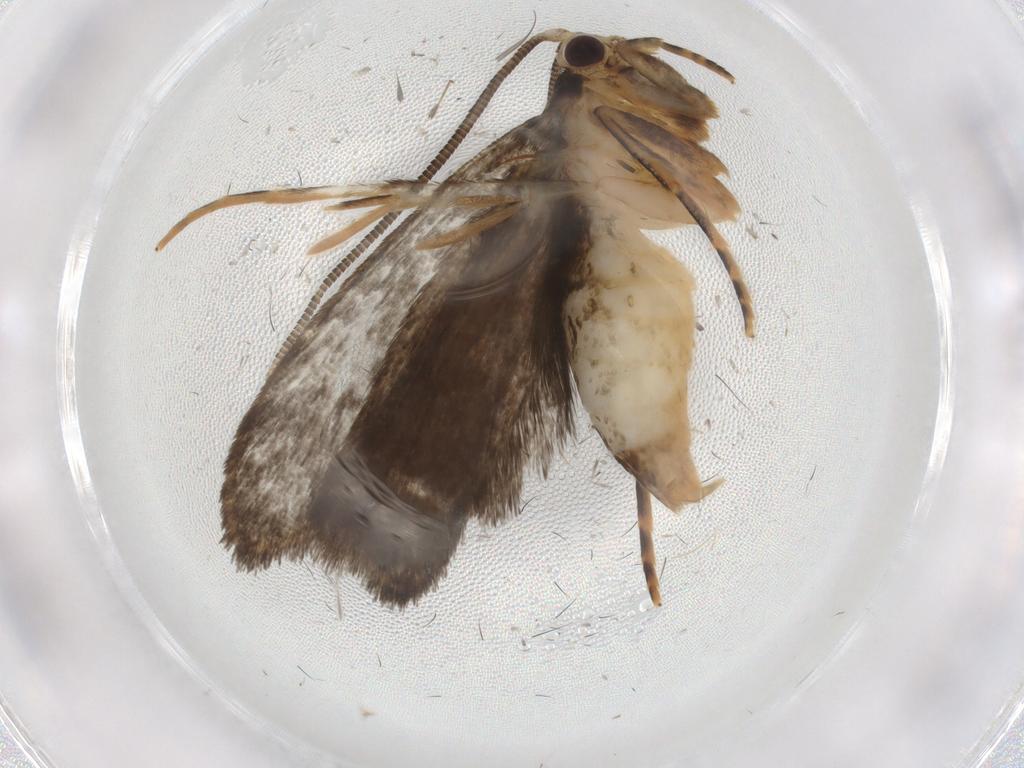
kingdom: Animalia
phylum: Arthropoda
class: Insecta
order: Lepidoptera
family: Tineidae
